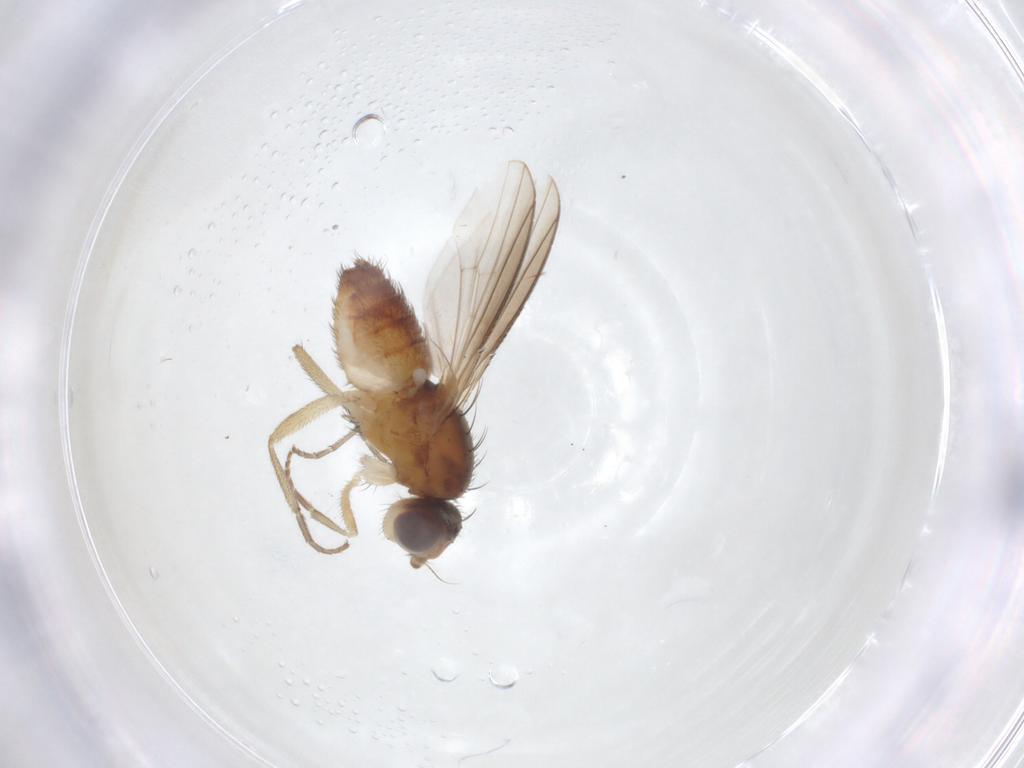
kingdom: Animalia
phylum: Arthropoda
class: Insecta
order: Diptera
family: Heleomyzidae
